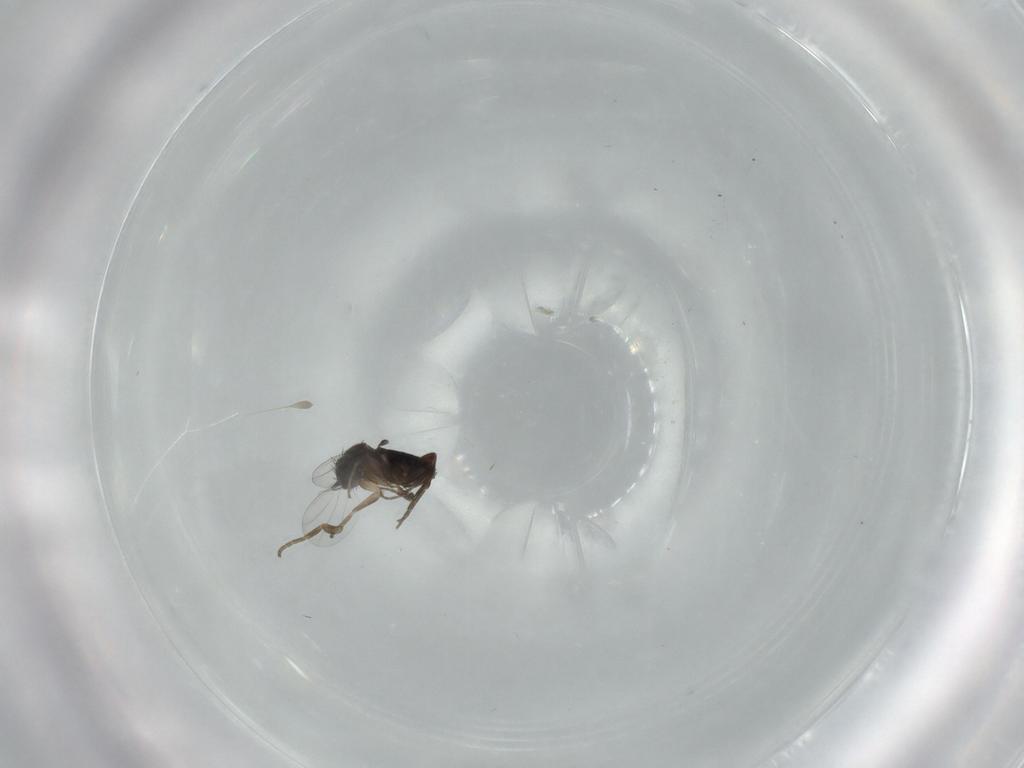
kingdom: Animalia
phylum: Arthropoda
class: Insecta
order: Diptera
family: Phoridae
